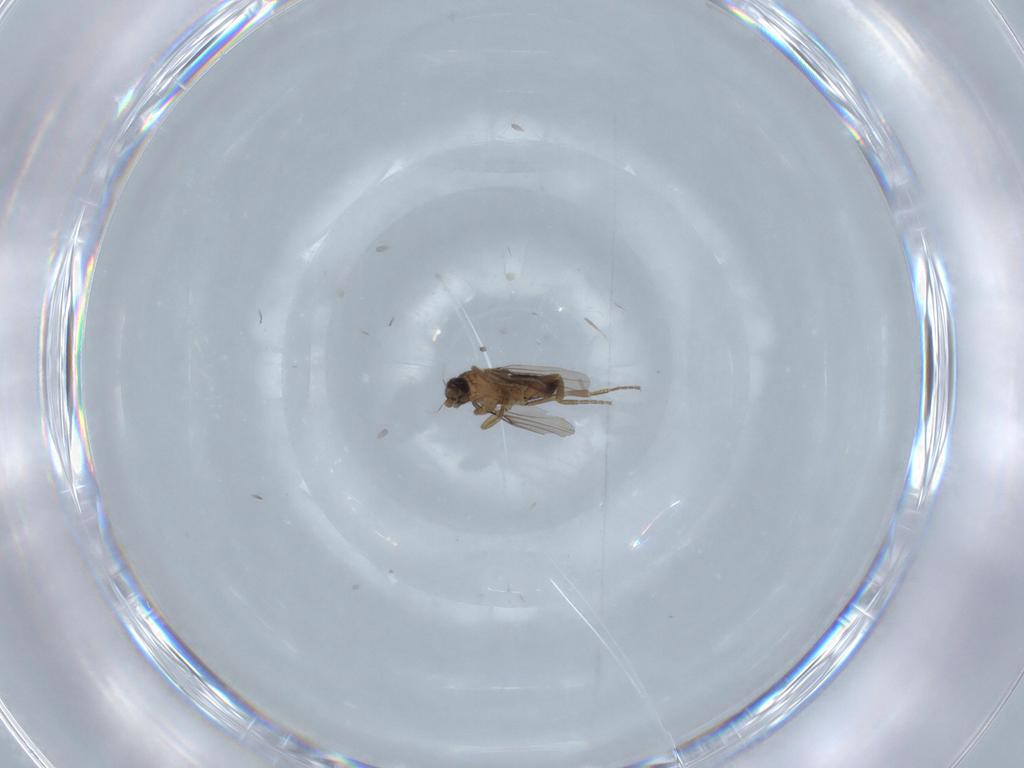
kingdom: Animalia
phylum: Arthropoda
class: Insecta
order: Diptera
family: Phoridae
